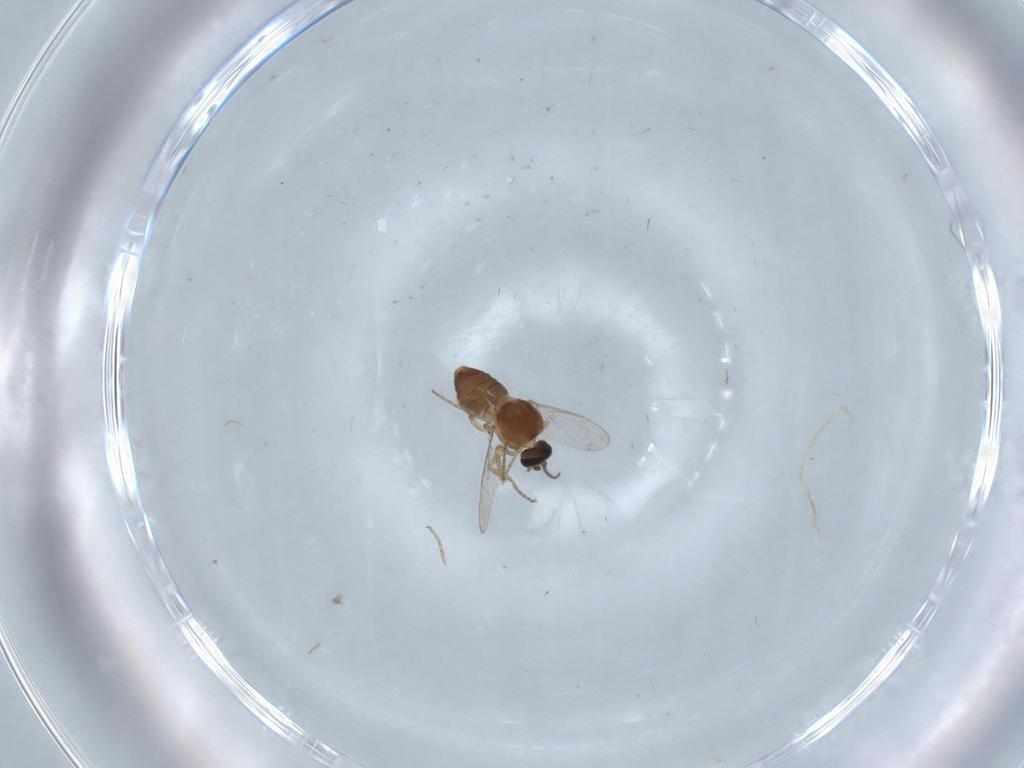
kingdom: Animalia
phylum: Arthropoda
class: Insecta
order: Diptera
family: Ceratopogonidae
